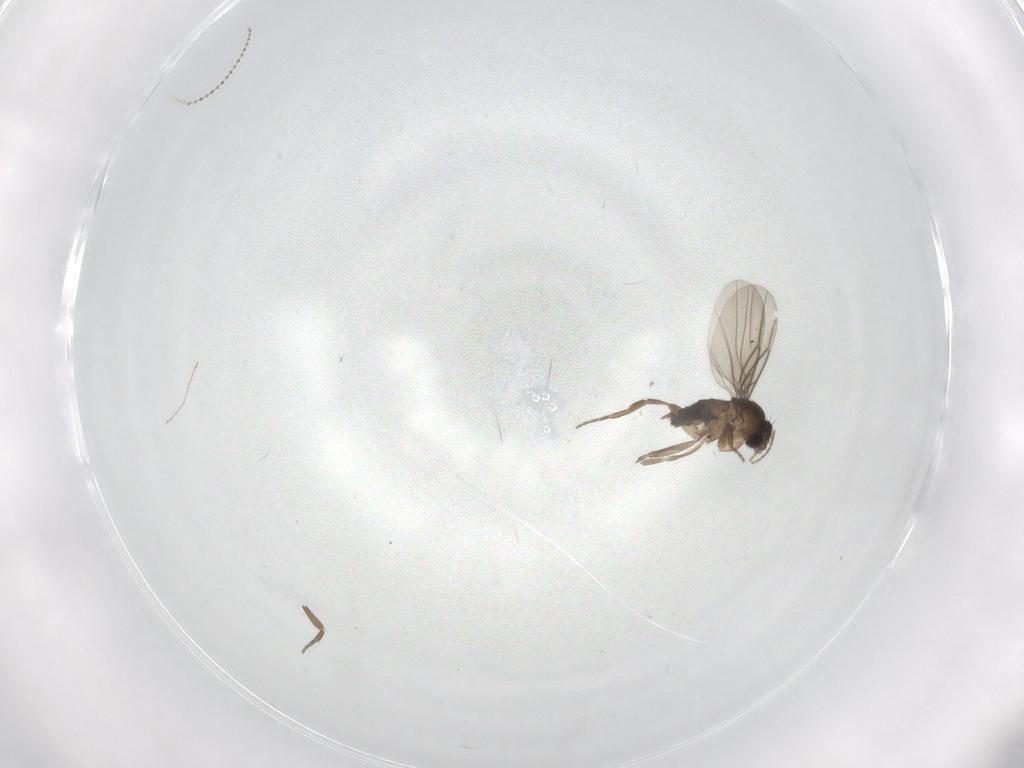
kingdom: Animalia
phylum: Arthropoda
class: Insecta
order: Diptera
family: Cecidomyiidae
